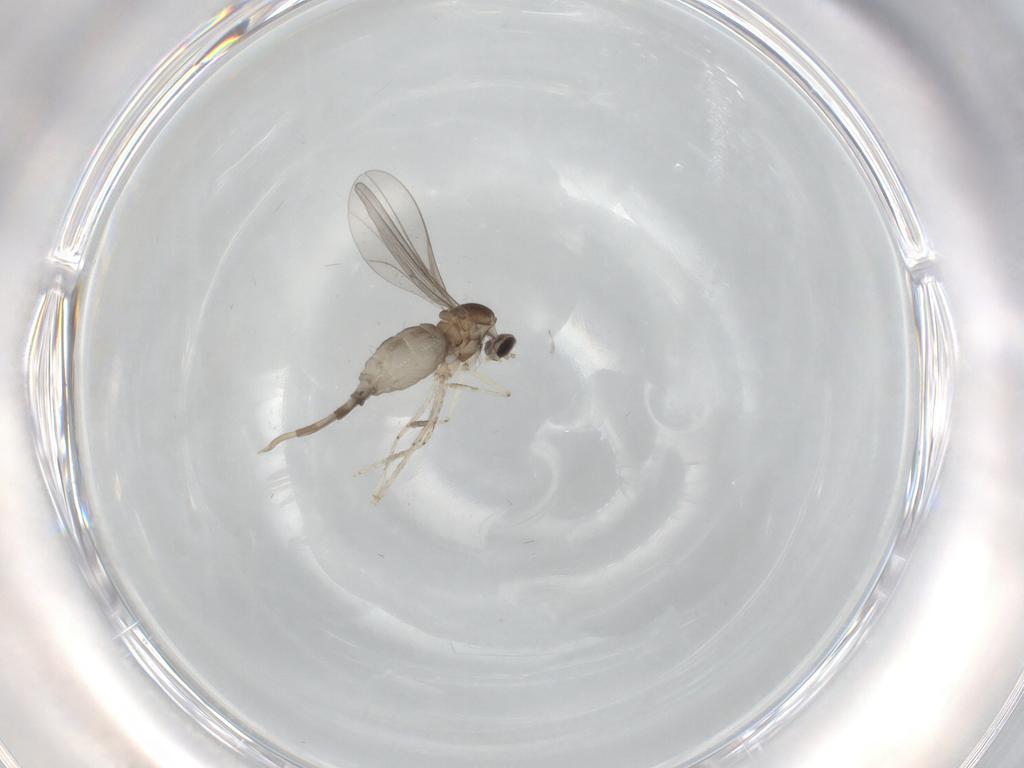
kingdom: Animalia
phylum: Arthropoda
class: Insecta
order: Diptera
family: Cecidomyiidae
